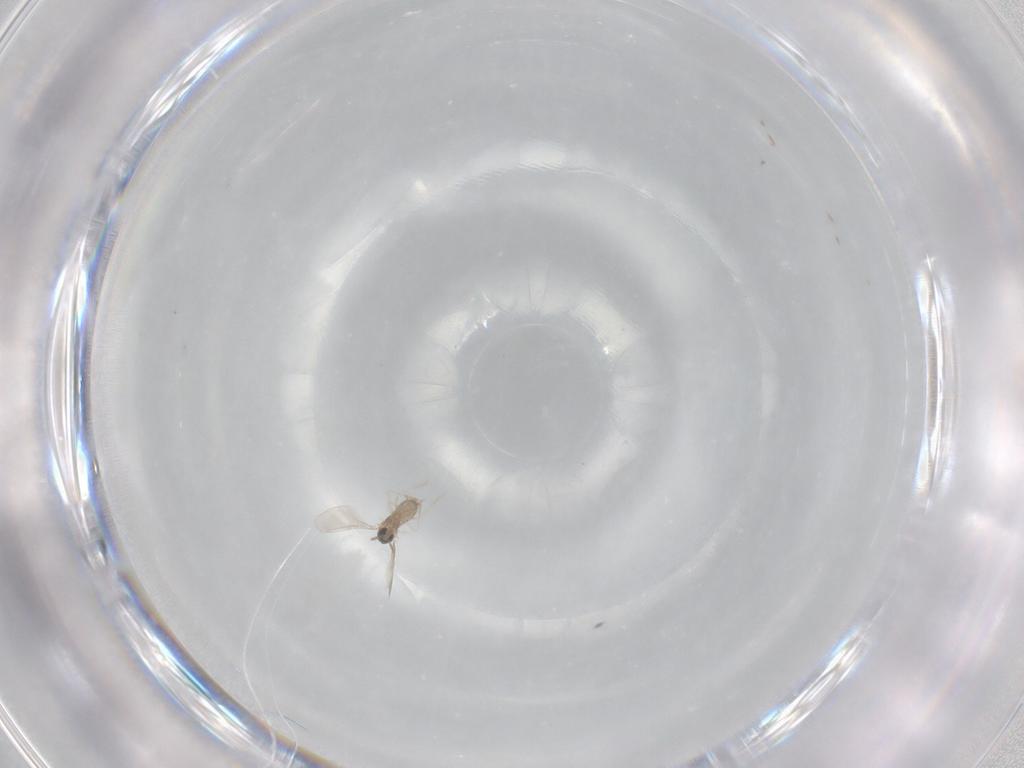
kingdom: Animalia
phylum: Arthropoda
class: Insecta
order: Diptera
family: Cecidomyiidae
